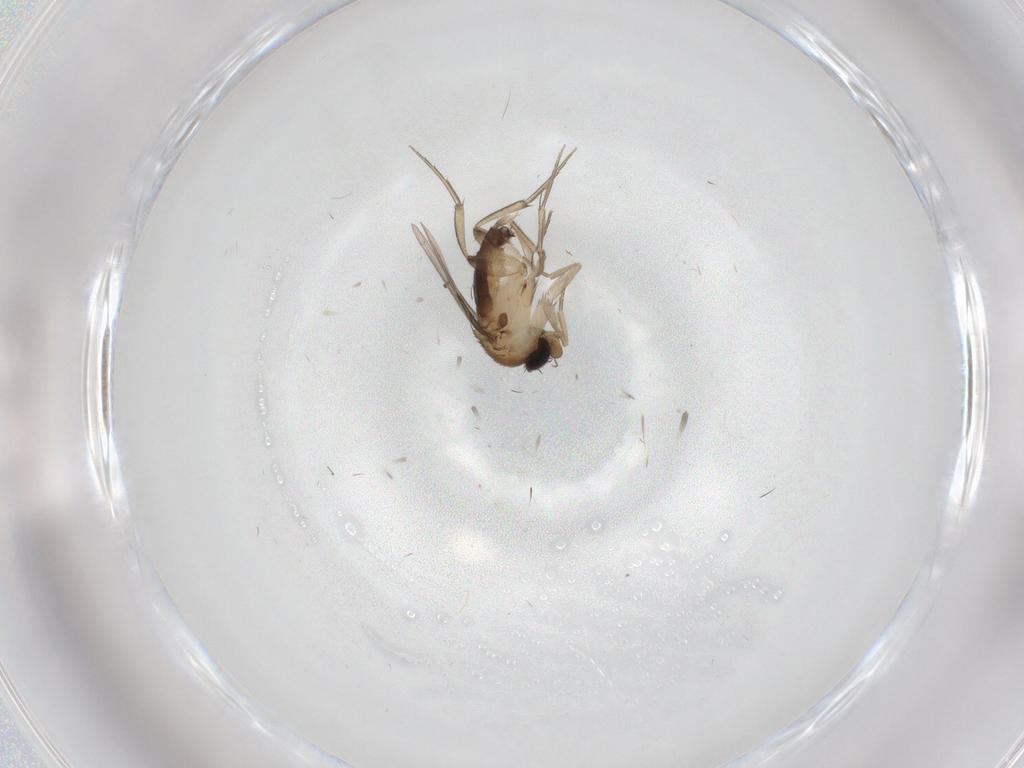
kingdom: Animalia
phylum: Arthropoda
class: Insecta
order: Diptera
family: Phoridae
